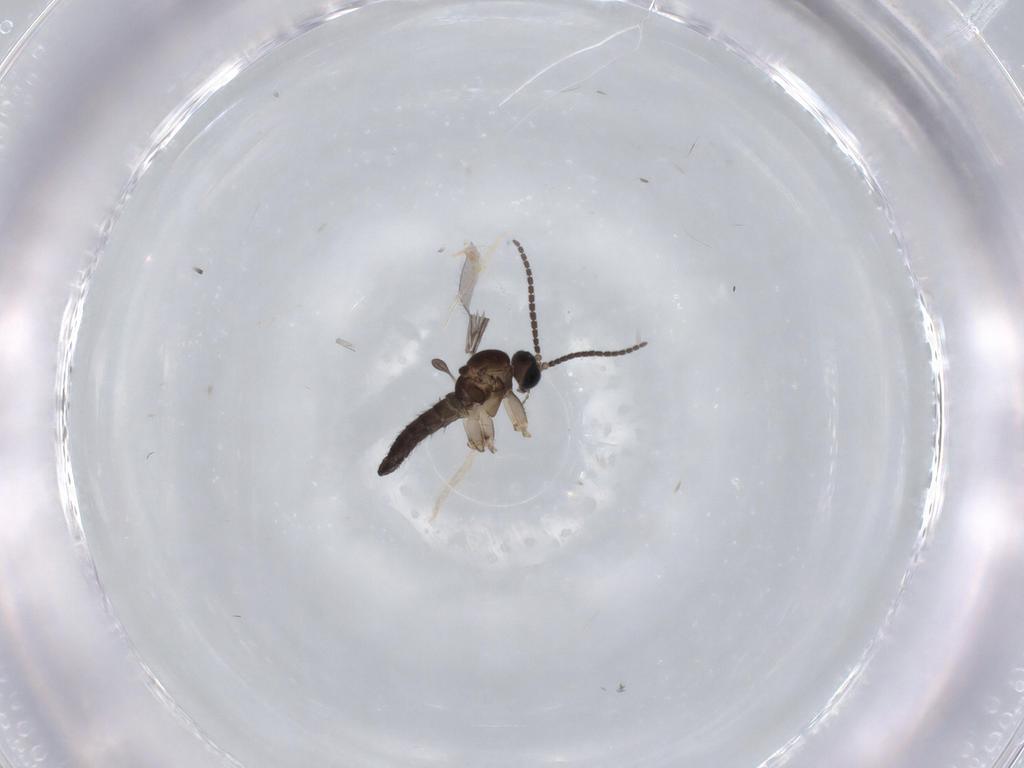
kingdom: Animalia
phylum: Arthropoda
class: Insecta
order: Diptera
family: Sciaridae
